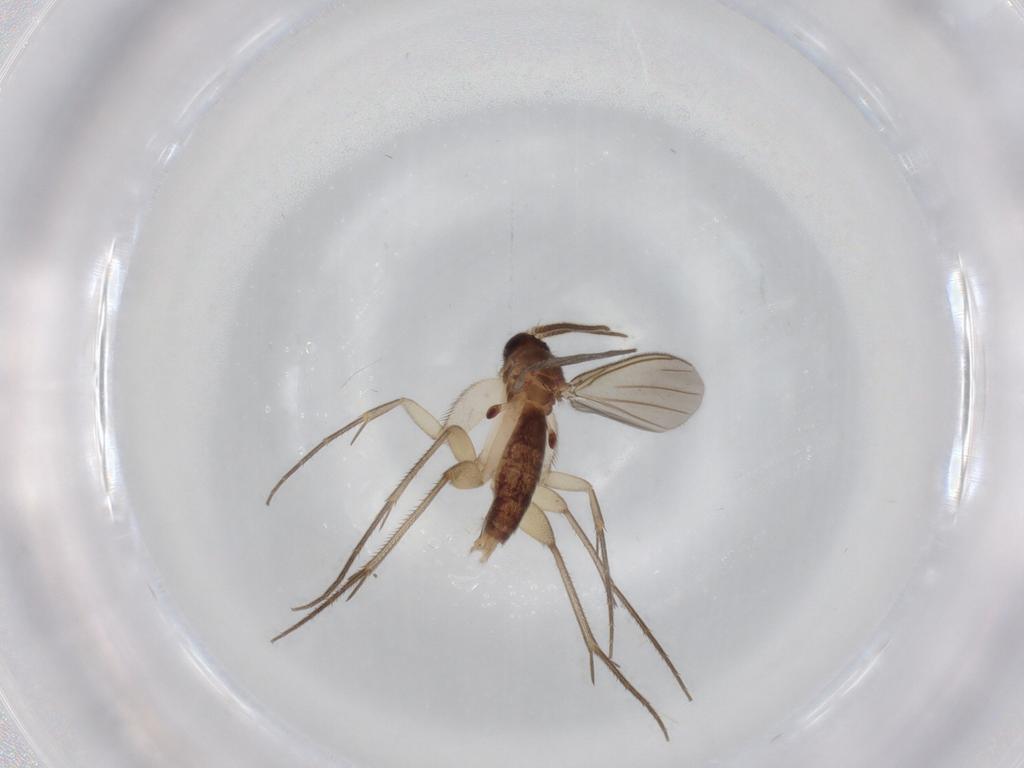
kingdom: Animalia
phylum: Arthropoda
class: Insecta
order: Diptera
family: Mycetophilidae
